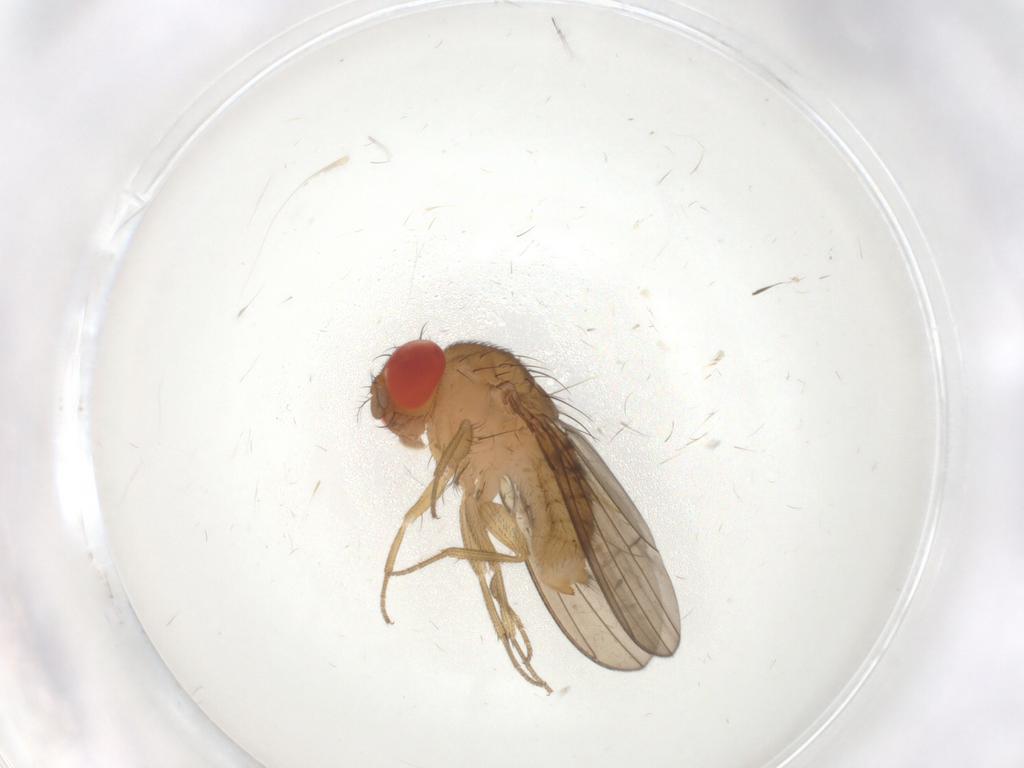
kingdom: Animalia
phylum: Arthropoda
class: Insecta
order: Diptera
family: Drosophilidae
